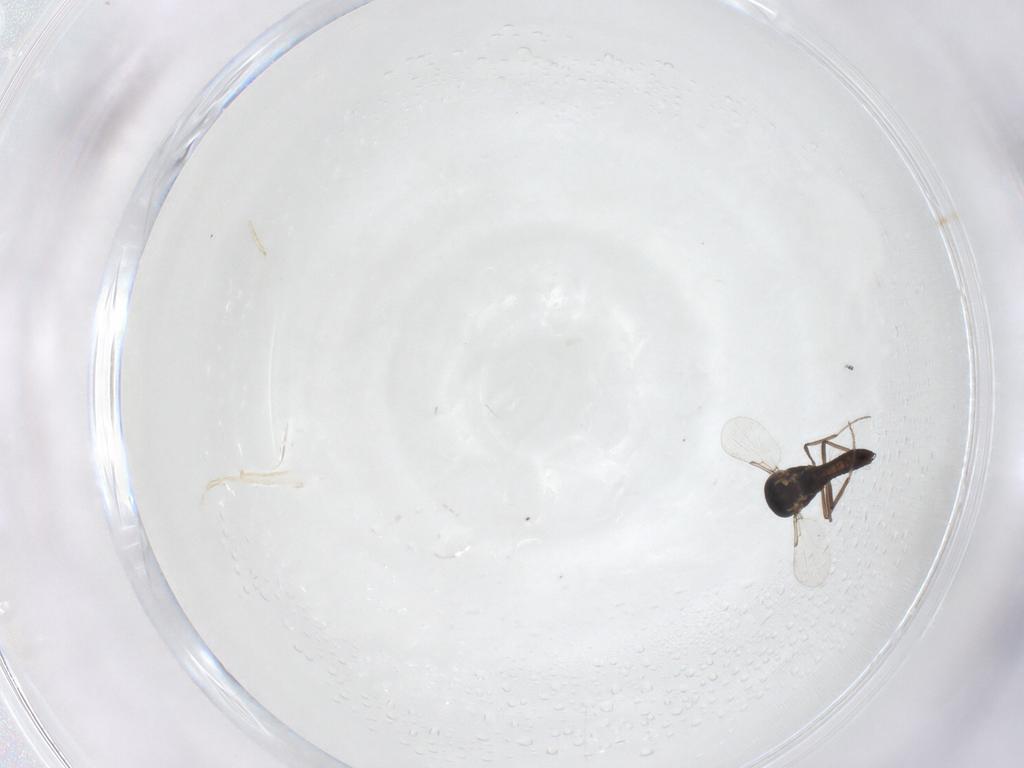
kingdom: Animalia
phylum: Arthropoda
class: Insecta
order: Diptera
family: Ceratopogonidae
